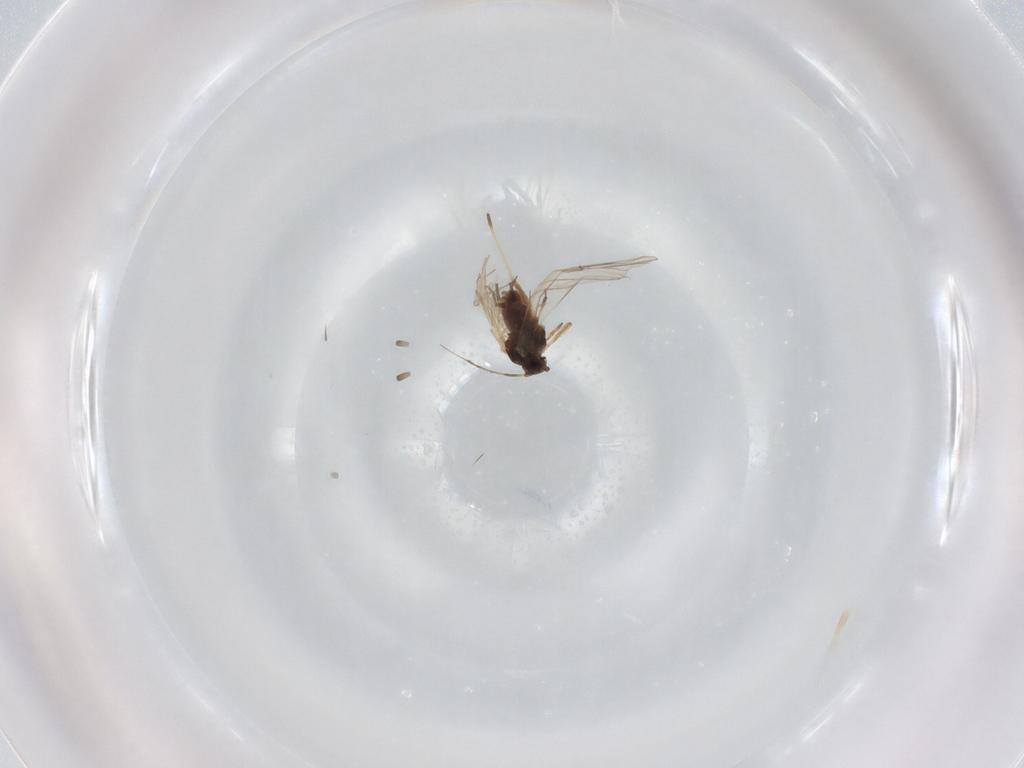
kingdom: Animalia
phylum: Arthropoda
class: Insecta
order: Hemiptera
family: Aphididae
